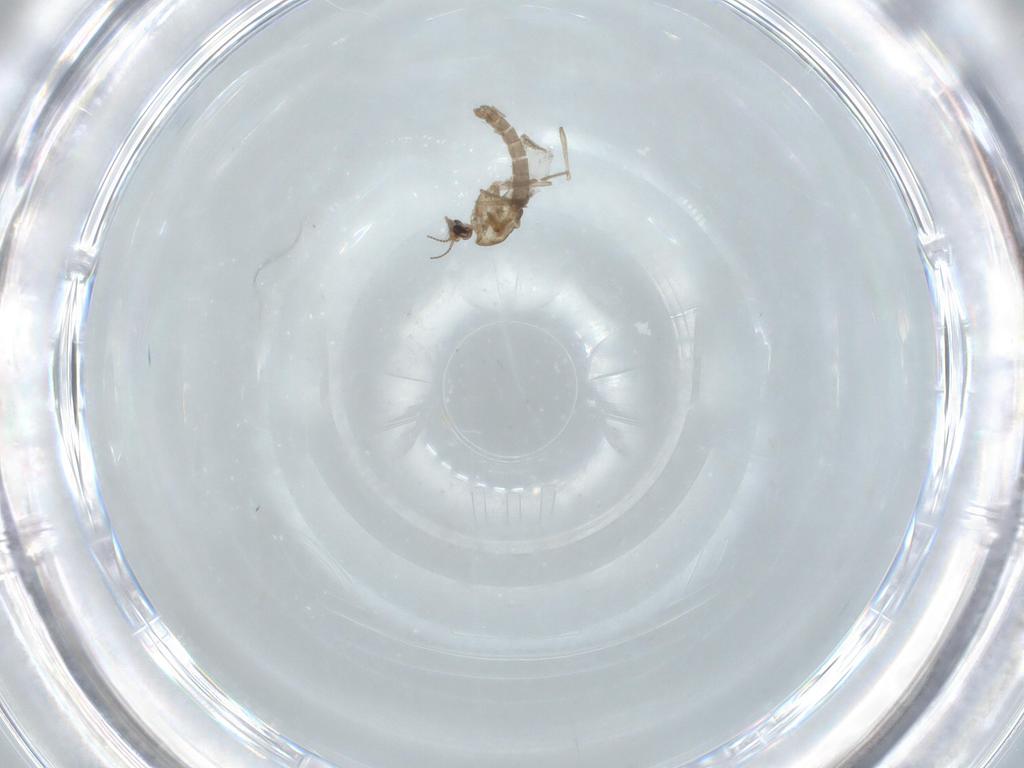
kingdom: Animalia
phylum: Arthropoda
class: Insecta
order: Diptera
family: Chironomidae
